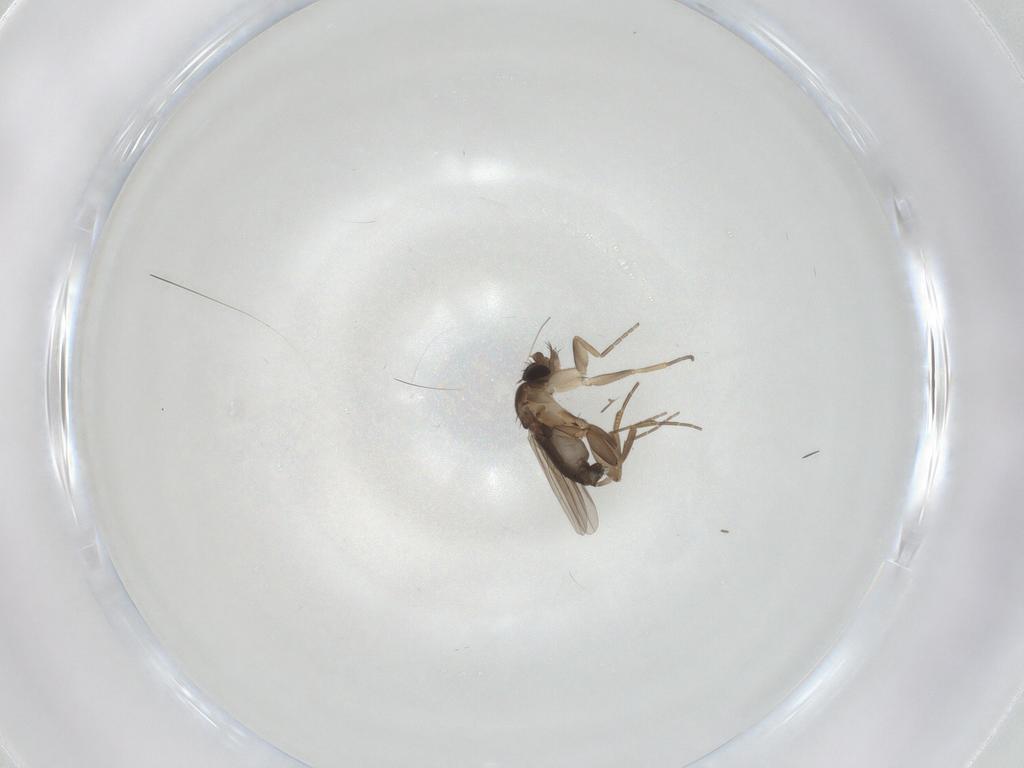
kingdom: Animalia
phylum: Arthropoda
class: Insecta
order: Diptera
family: Phoridae
